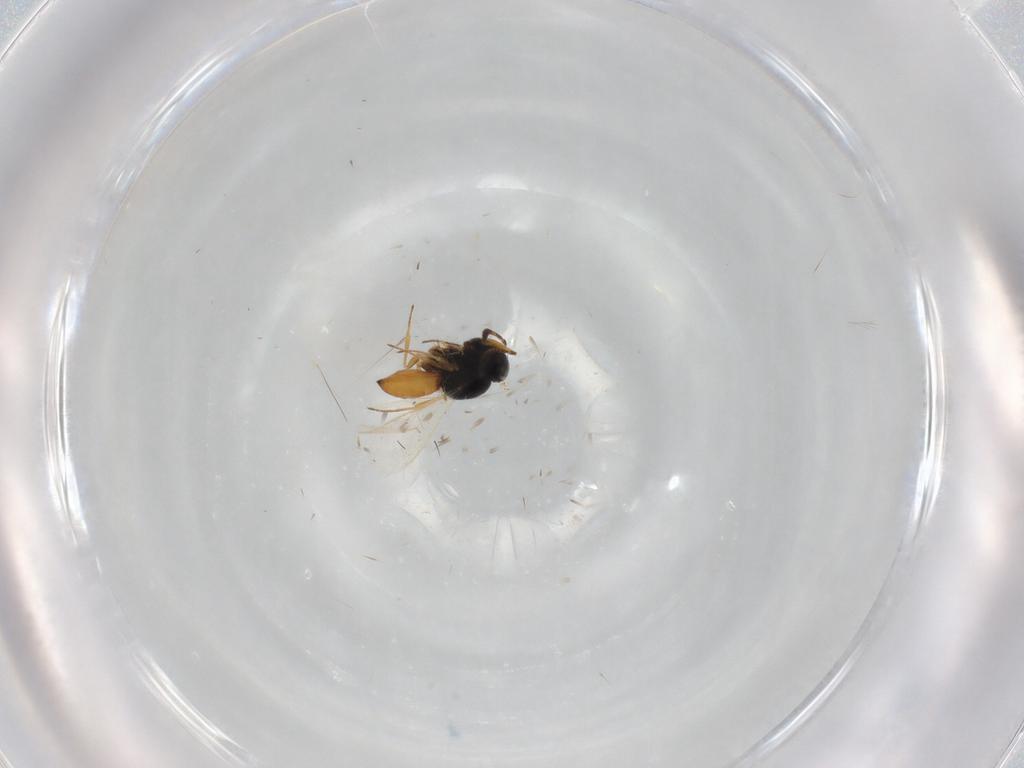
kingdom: Animalia
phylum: Arthropoda
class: Insecta
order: Hymenoptera
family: Scelionidae
